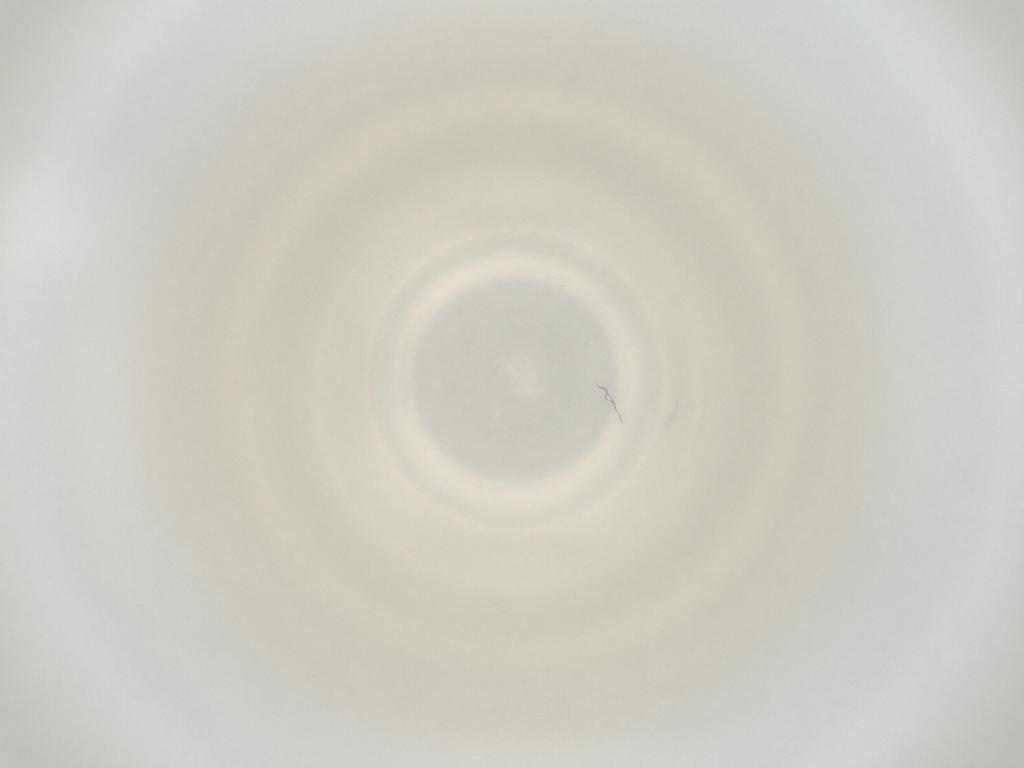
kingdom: Animalia
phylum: Arthropoda
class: Insecta
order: Diptera
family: Cecidomyiidae
